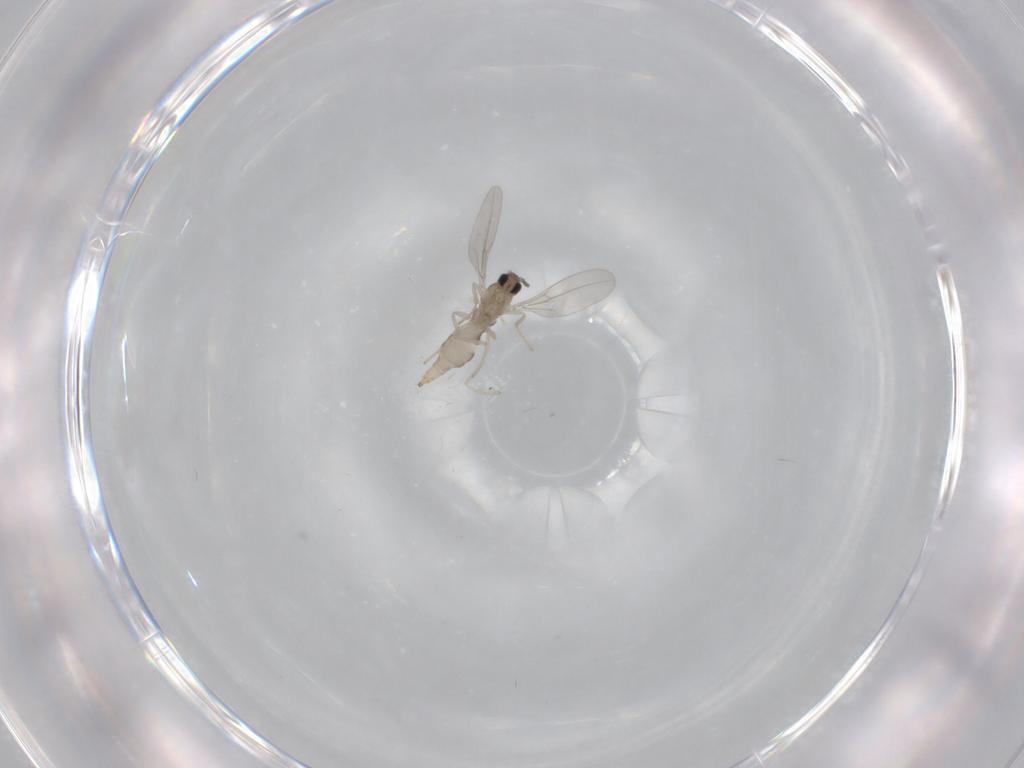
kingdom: Animalia
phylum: Arthropoda
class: Insecta
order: Diptera
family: Cecidomyiidae
